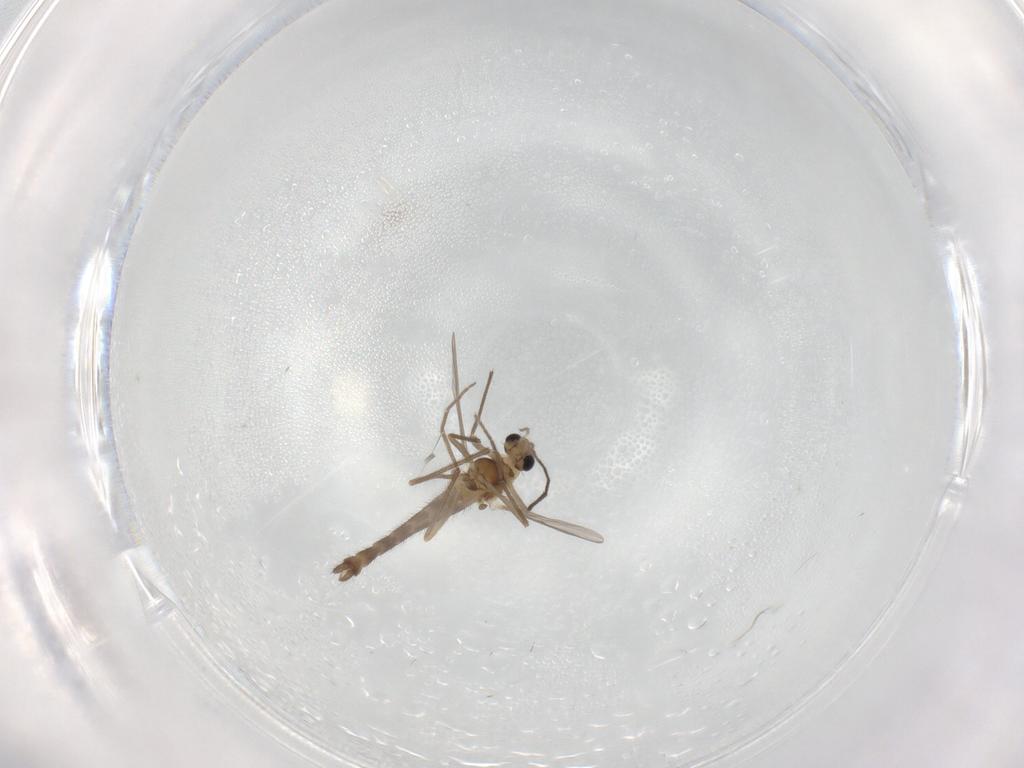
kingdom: Animalia
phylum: Arthropoda
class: Insecta
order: Diptera
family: Chironomidae
